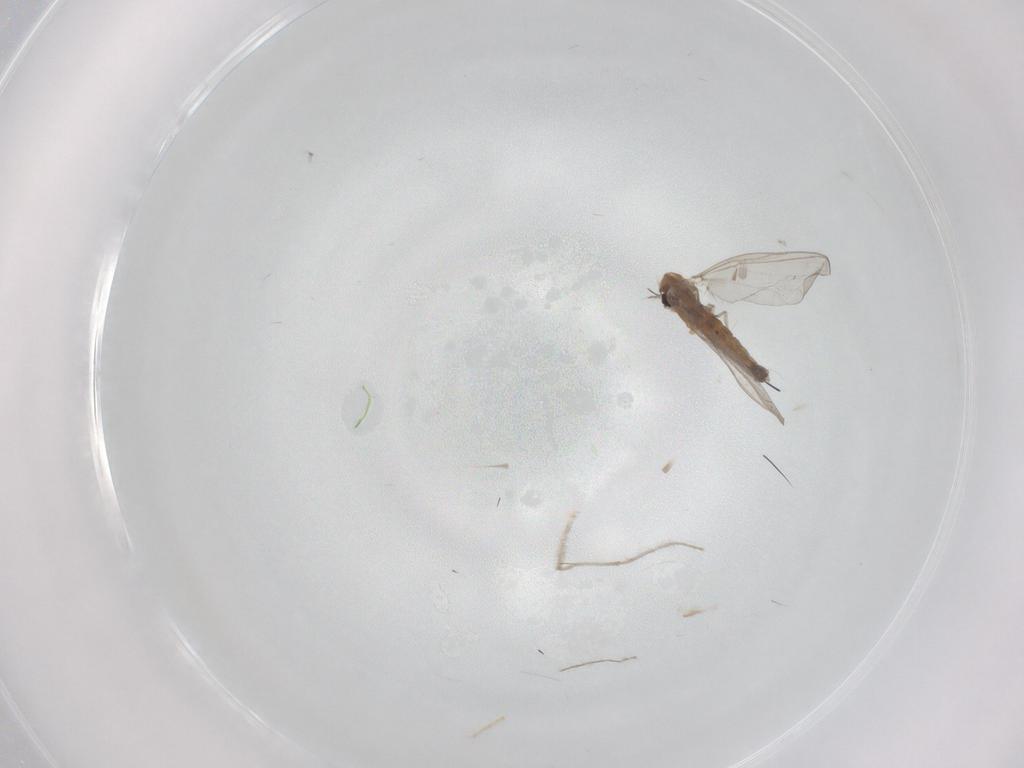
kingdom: Animalia
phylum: Arthropoda
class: Insecta
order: Diptera
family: Chironomidae
